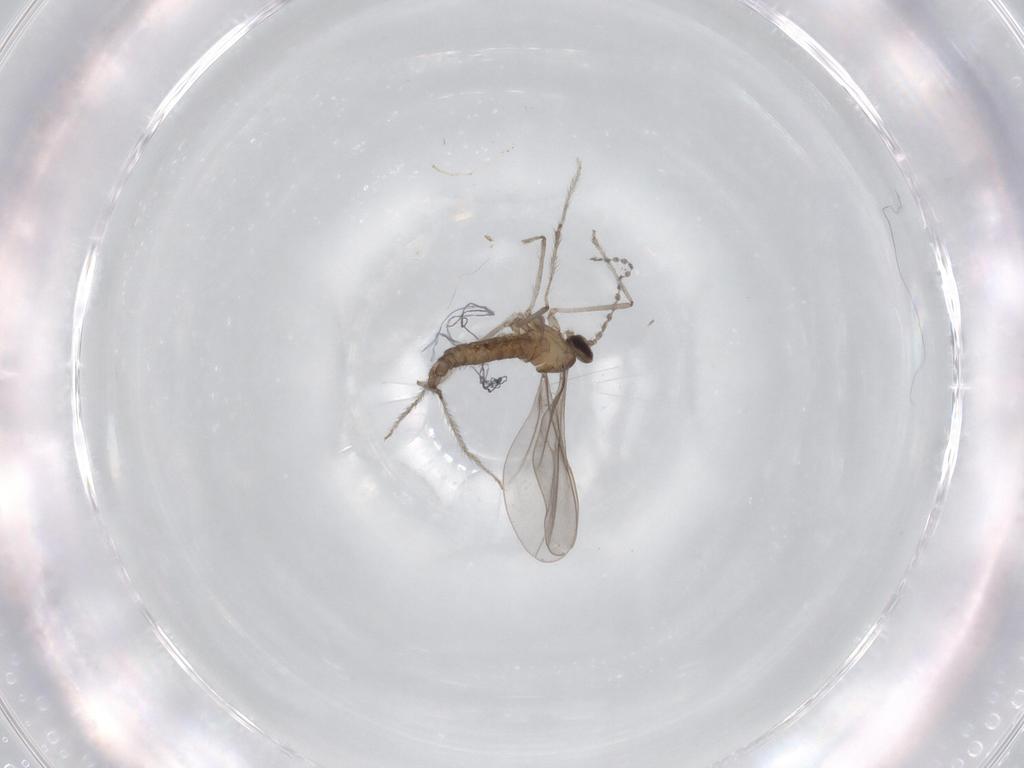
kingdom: Animalia
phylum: Arthropoda
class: Insecta
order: Diptera
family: Cecidomyiidae
